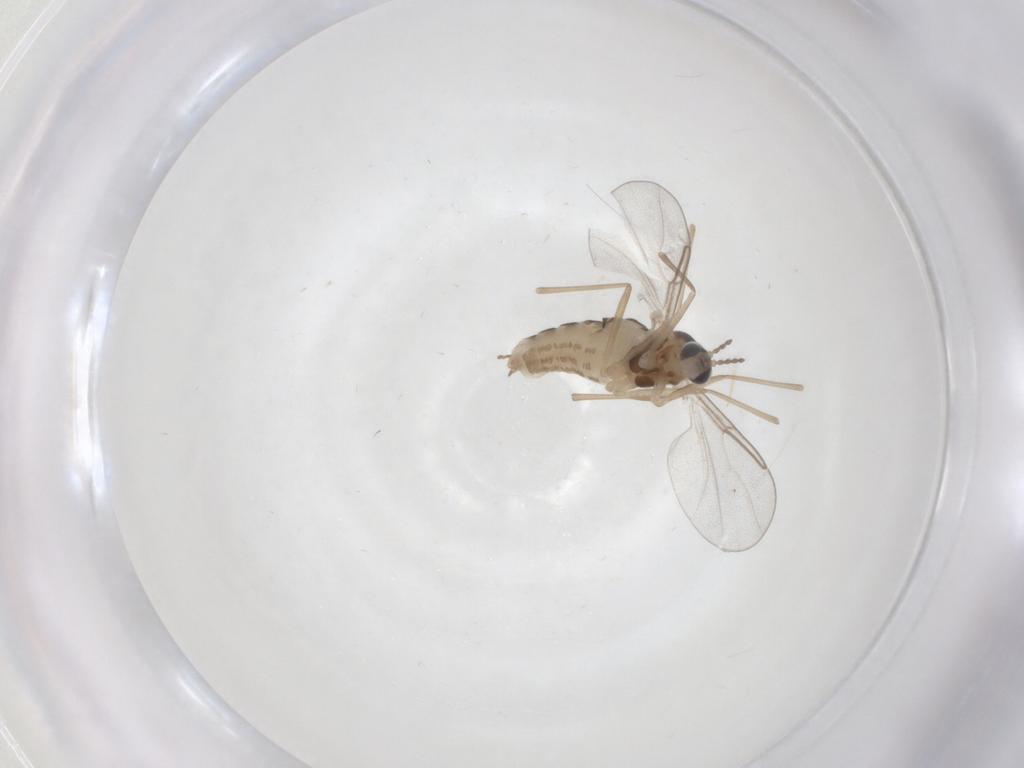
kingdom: Animalia
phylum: Arthropoda
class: Insecta
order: Diptera
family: Cecidomyiidae
